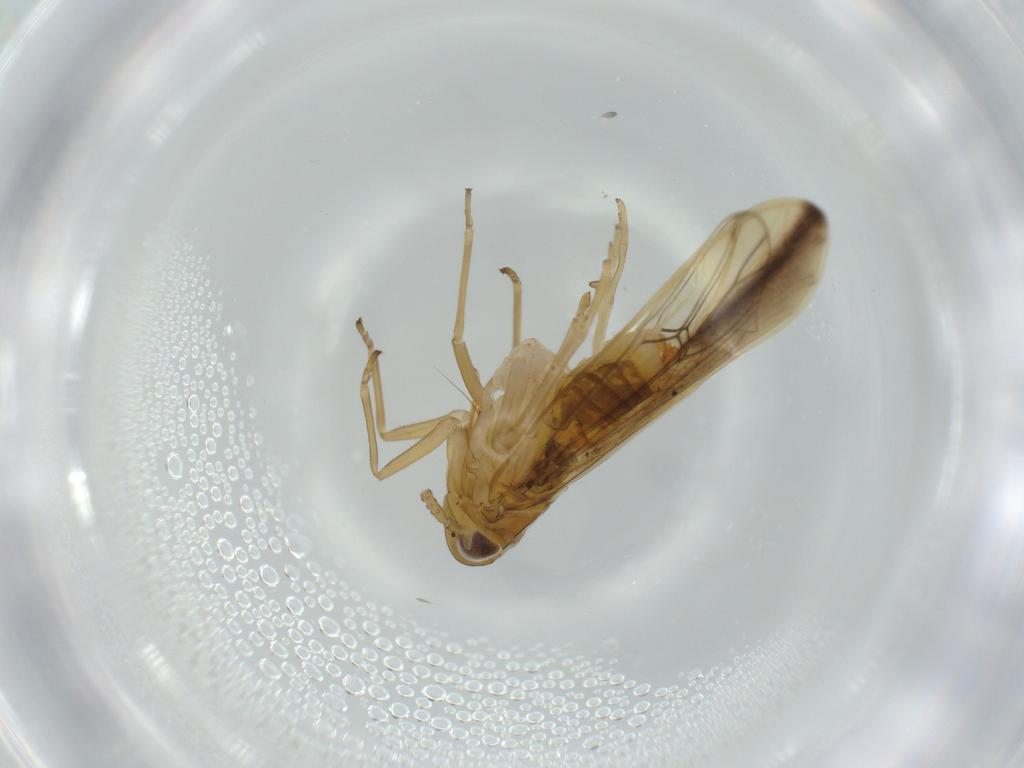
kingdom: Animalia
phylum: Arthropoda
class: Insecta
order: Hemiptera
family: Delphacidae
